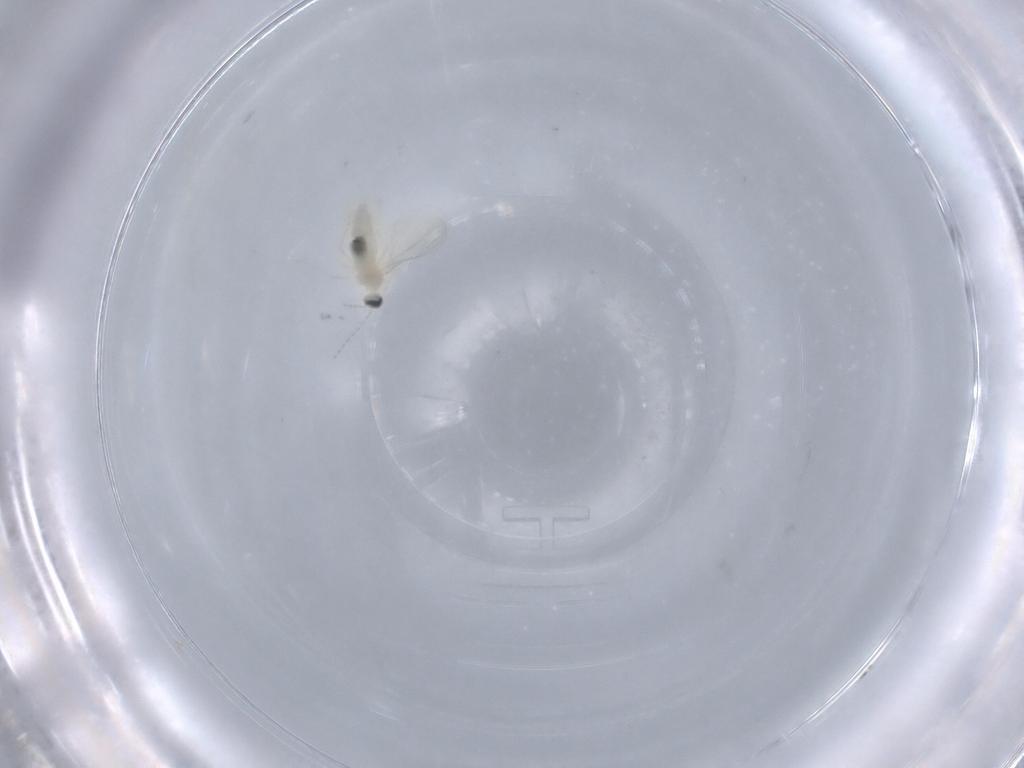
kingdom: Animalia
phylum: Arthropoda
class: Insecta
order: Diptera
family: Cecidomyiidae
